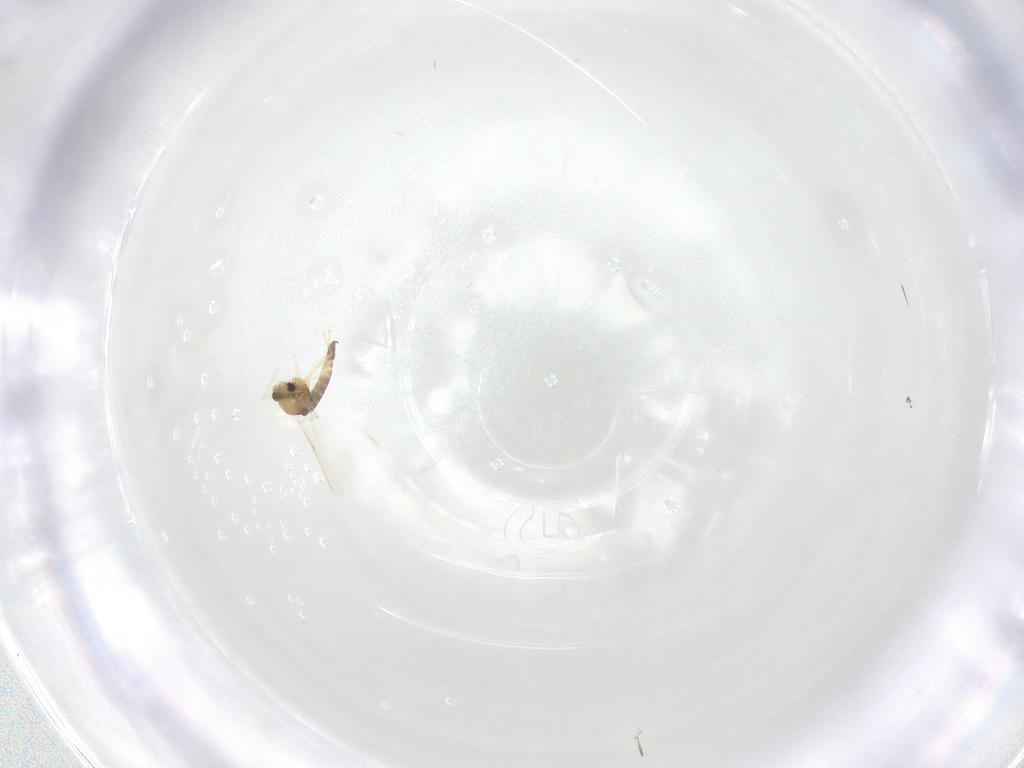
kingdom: Animalia
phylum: Arthropoda
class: Insecta
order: Diptera
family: Chironomidae
